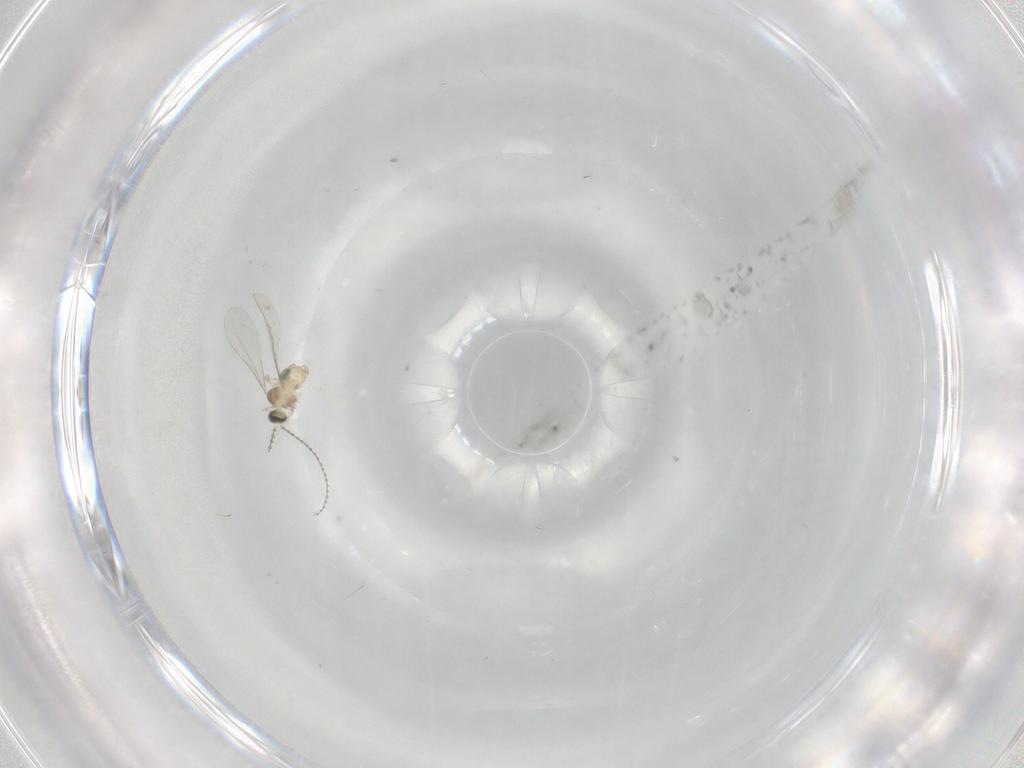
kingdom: Animalia
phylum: Arthropoda
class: Insecta
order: Diptera
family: Cecidomyiidae
